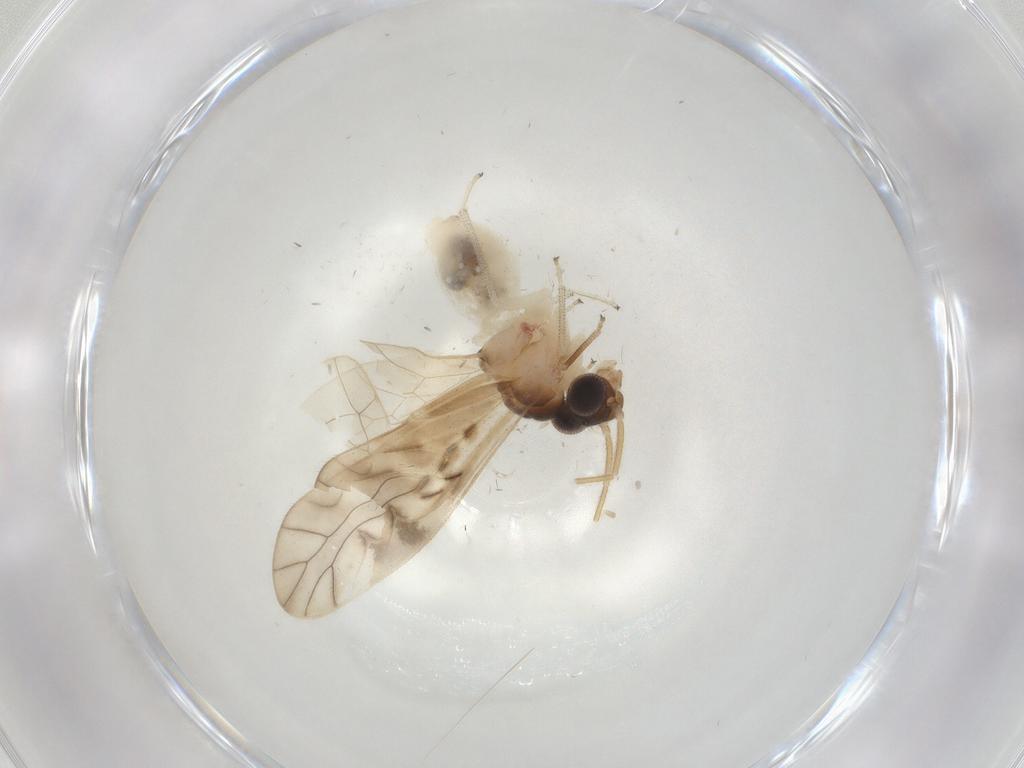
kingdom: Animalia
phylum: Arthropoda
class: Insecta
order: Psocodea
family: Caeciliusidae
